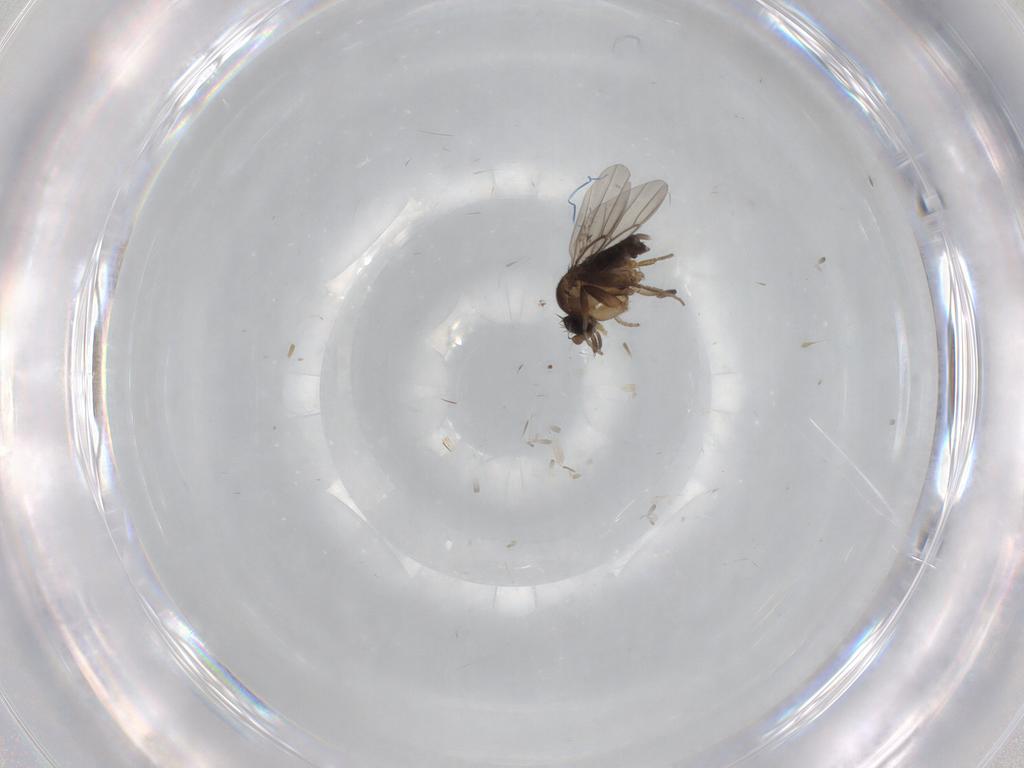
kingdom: Animalia
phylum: Arthropoda
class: Insecta
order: Diptera
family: Phoridae
